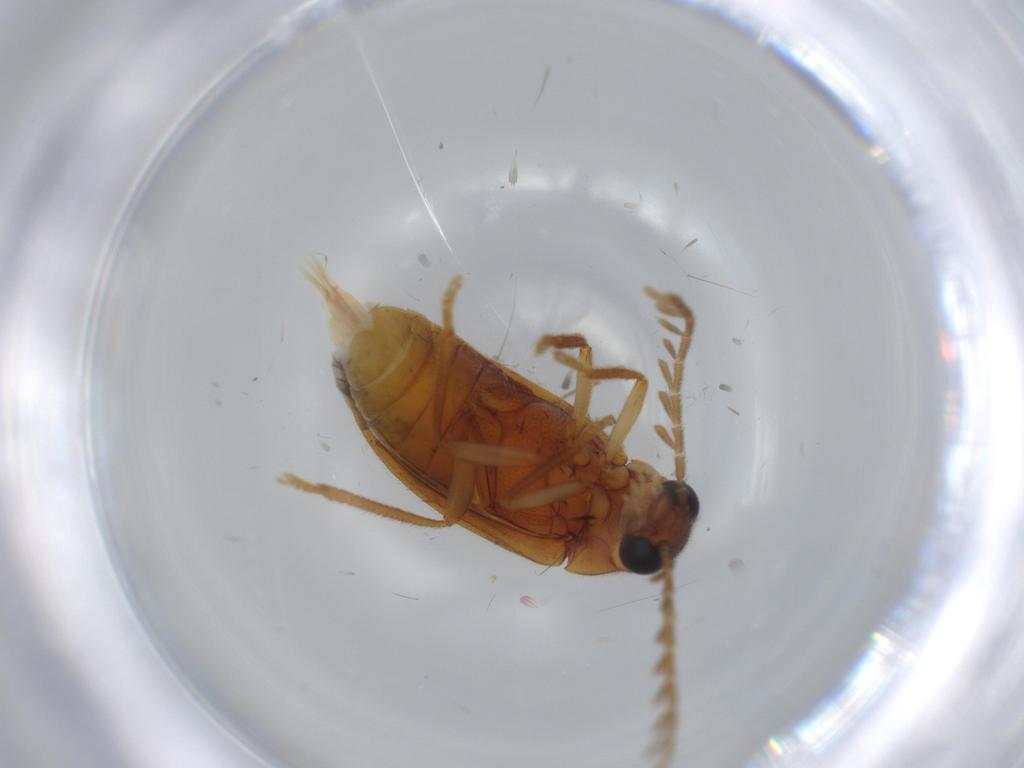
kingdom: Animalia
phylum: Arthropoda
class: Insecta
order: Coleoptera
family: Ptilodactylidae
